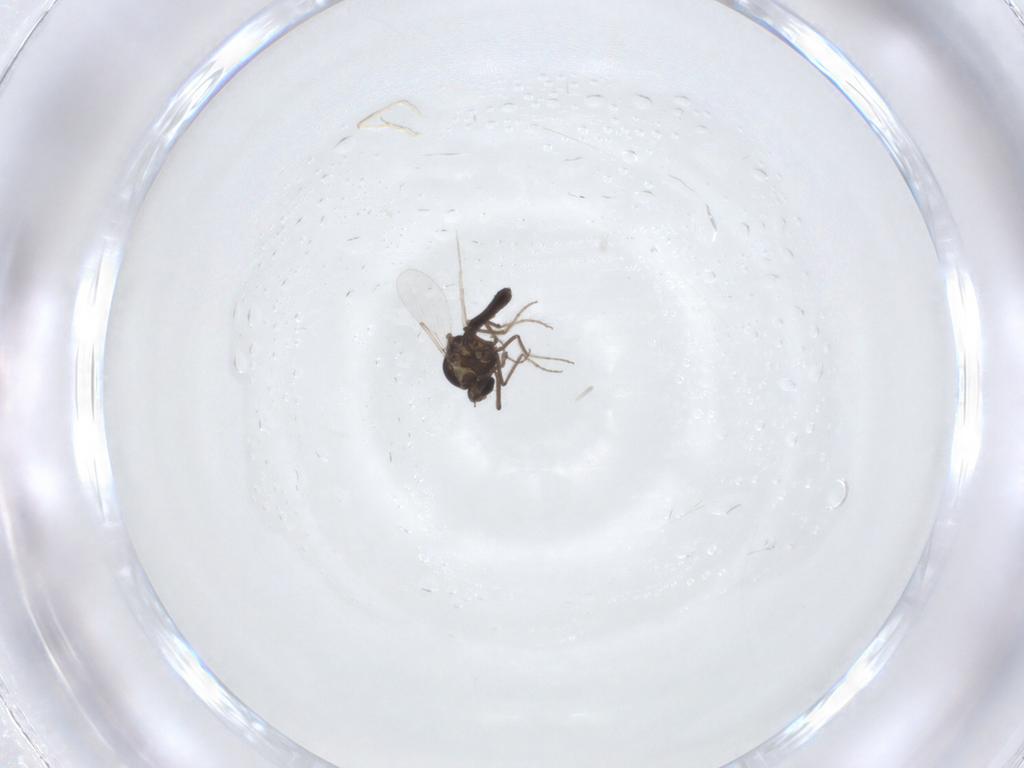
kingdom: Animalia
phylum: Arthropoda
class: Insecta
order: Diptera
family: Ceratopogonidae
